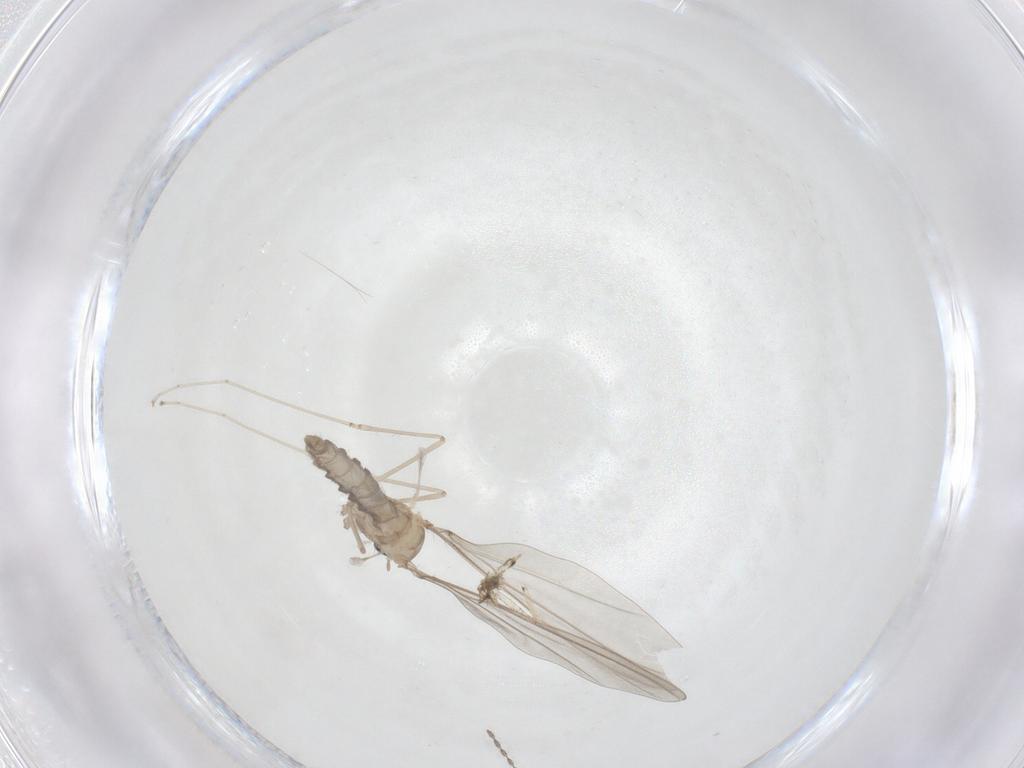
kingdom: Animalia
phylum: Arthropoda
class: Insecta
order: Diptera
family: Cecidomyiidae
